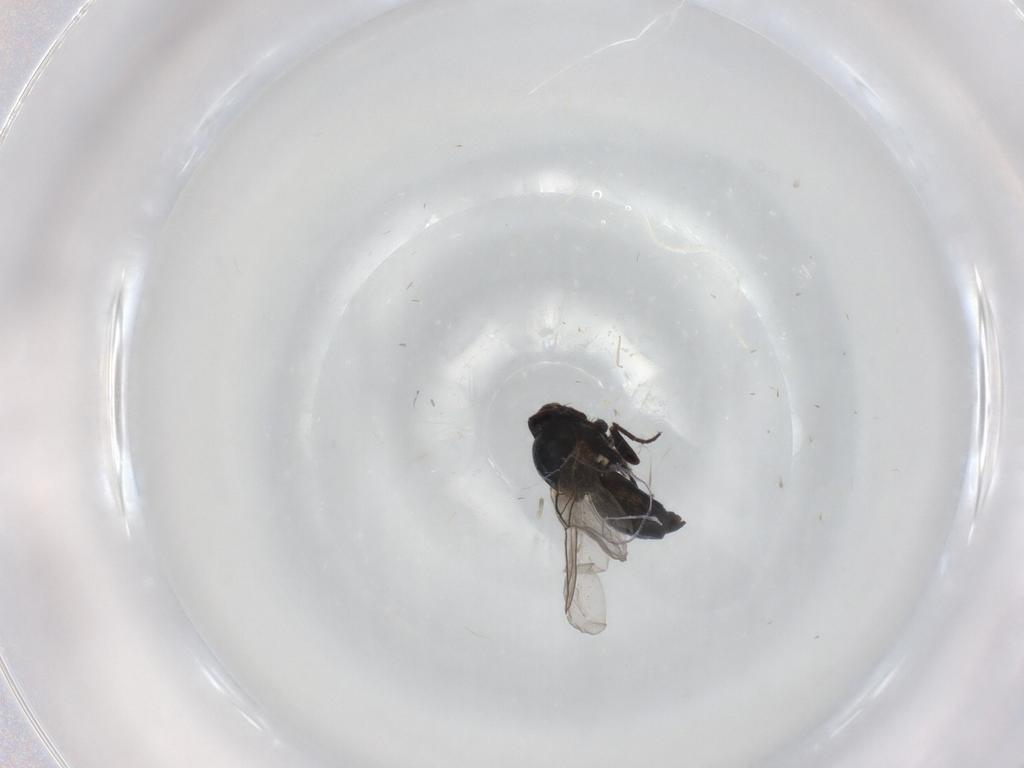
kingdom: Animalia
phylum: Arthropoda
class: Insecta
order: Diptera
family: Agromyzidae
